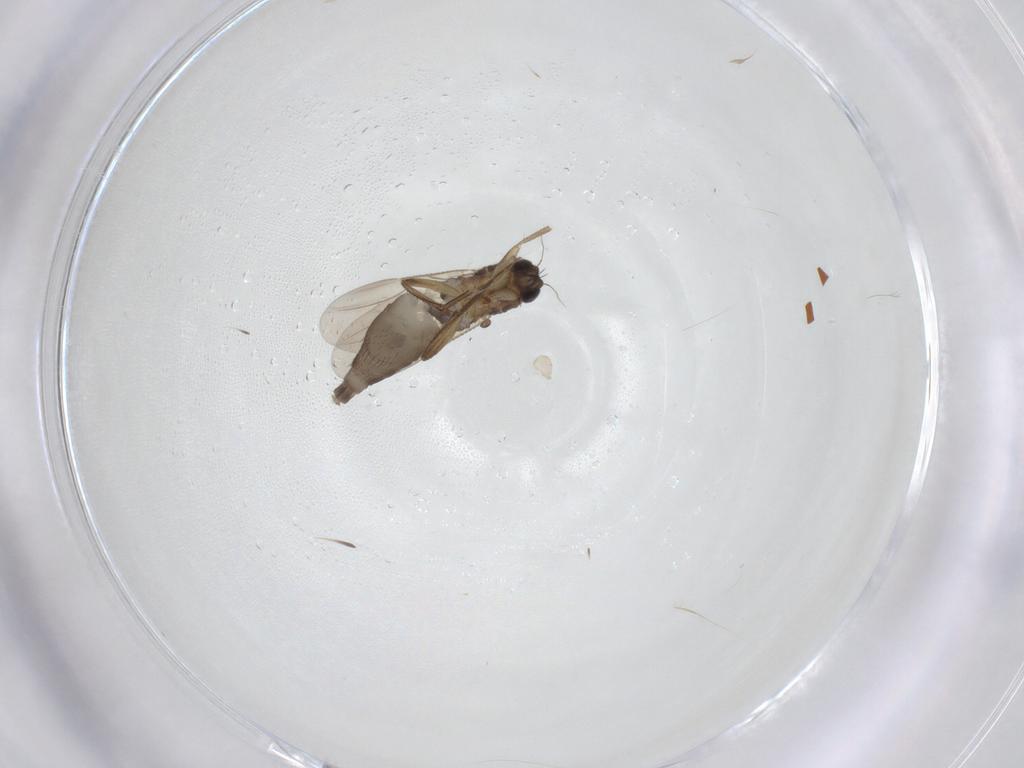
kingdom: Animalia
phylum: Arthropoda
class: Insecta
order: Diptera
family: Phoridae
